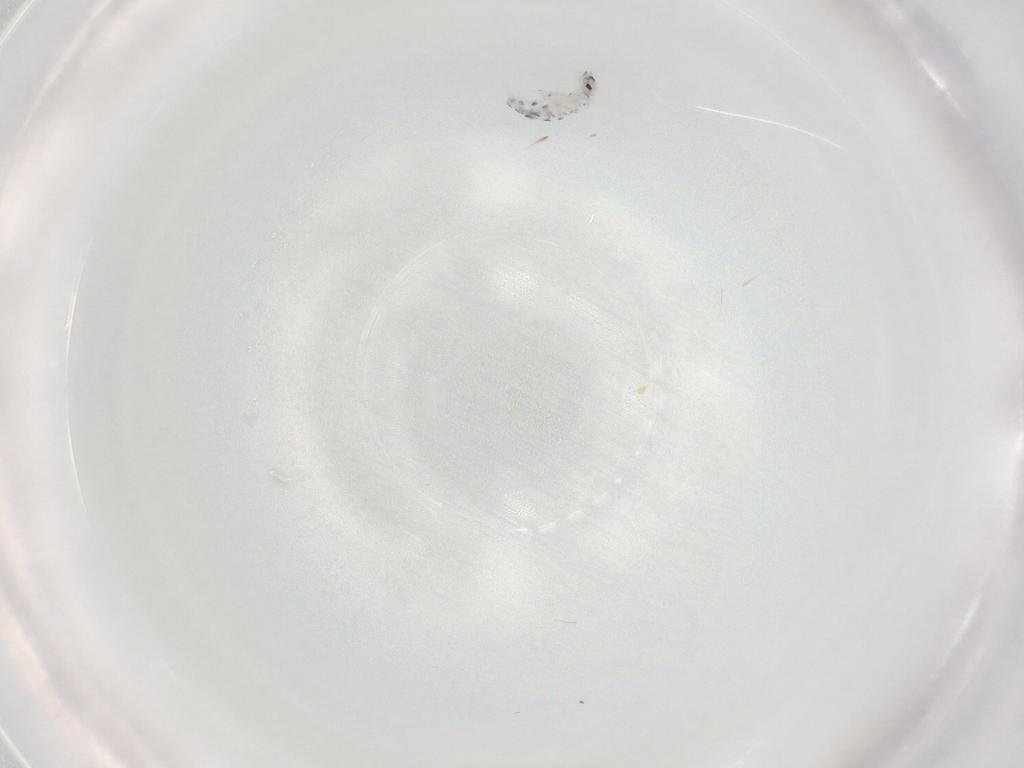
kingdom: Animalia
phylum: Arthropoda
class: Collembola
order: Entomobryomorpha
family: Entomobryidae
